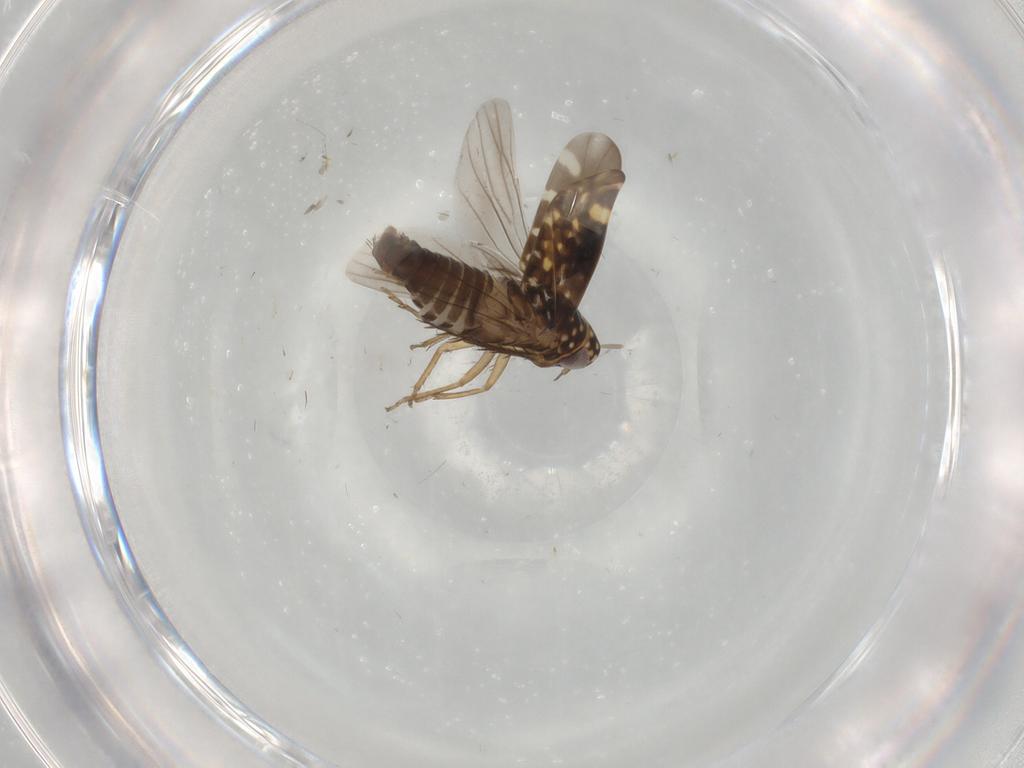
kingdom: Animalia
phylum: Arthropoda
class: Insecta
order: Hemiptera
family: Cicadellidae
